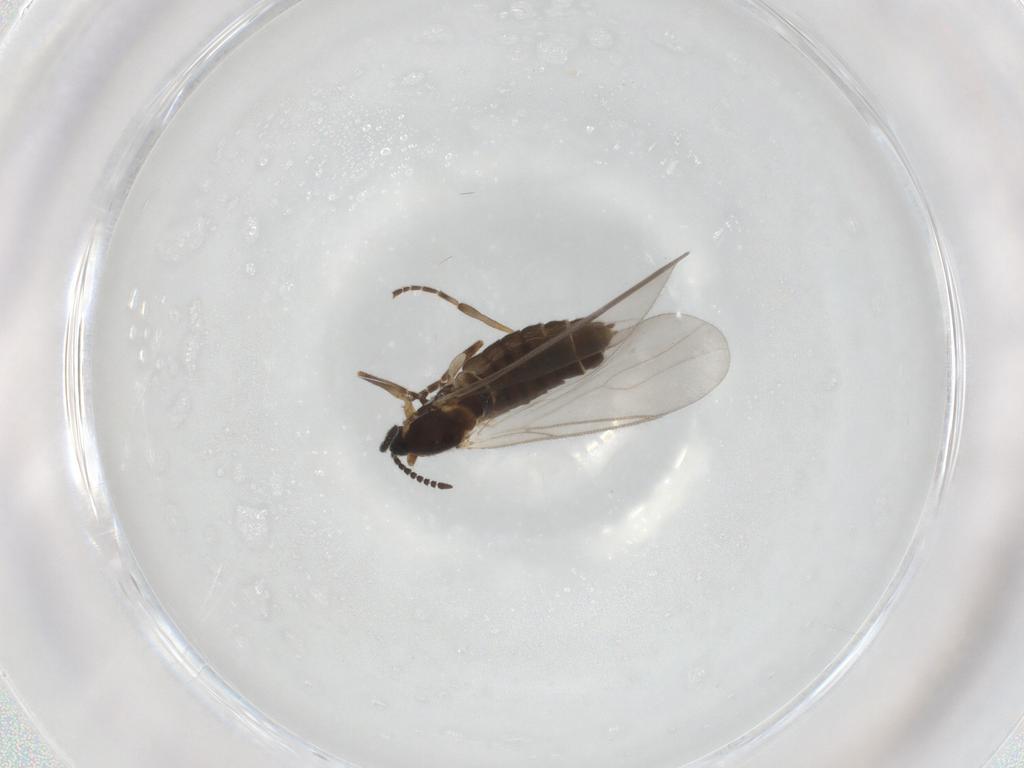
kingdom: Animalia
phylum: Arthropoda
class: Insecta
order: Diptera
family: Scatopsidae
